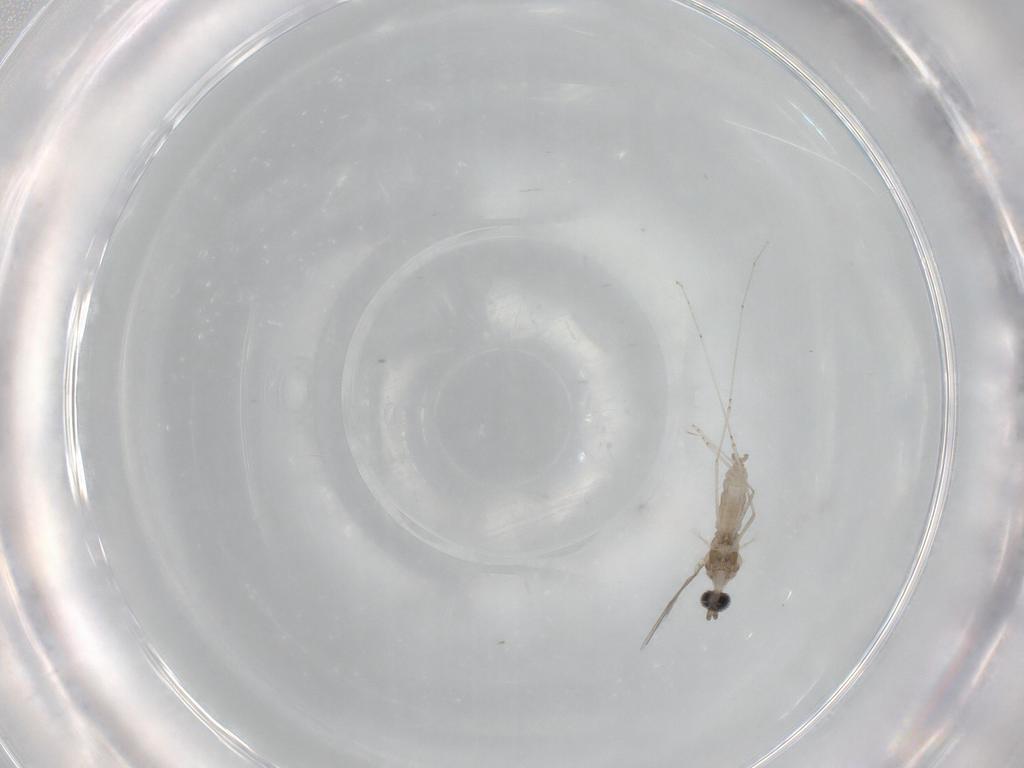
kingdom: Animalia
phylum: Arthropoda
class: Insecta
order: Diptera
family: Cecidomyiidae
